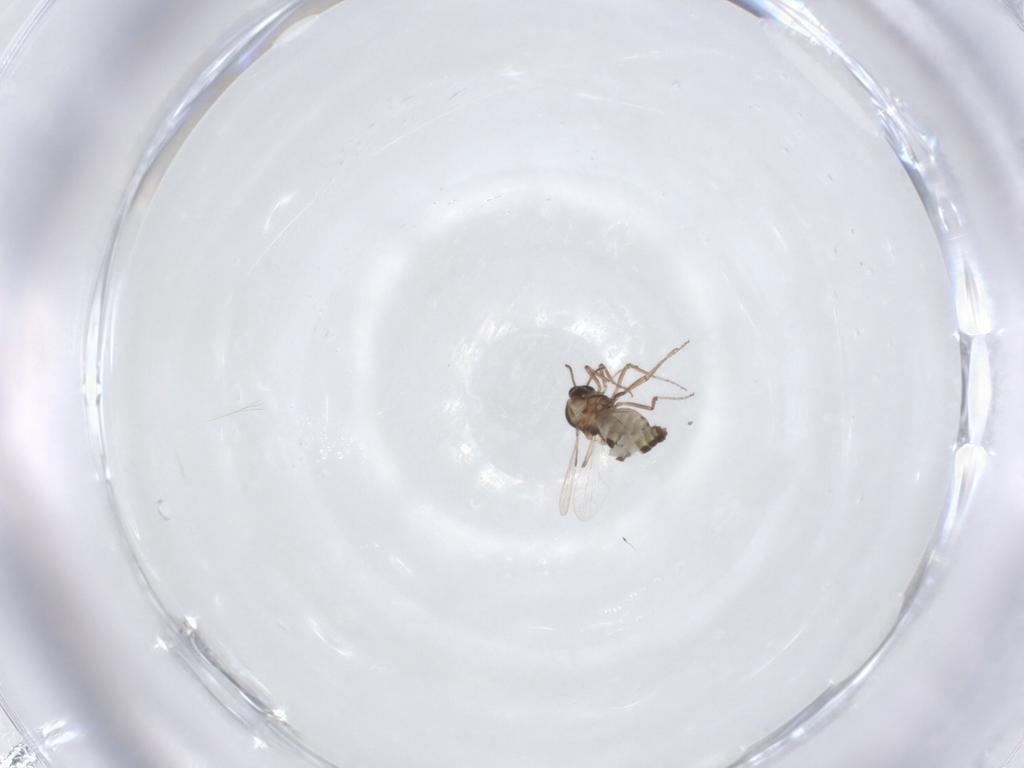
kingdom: Animalia
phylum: Arthropoda
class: Insecta
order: Diptera
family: Ceratopogonidae
